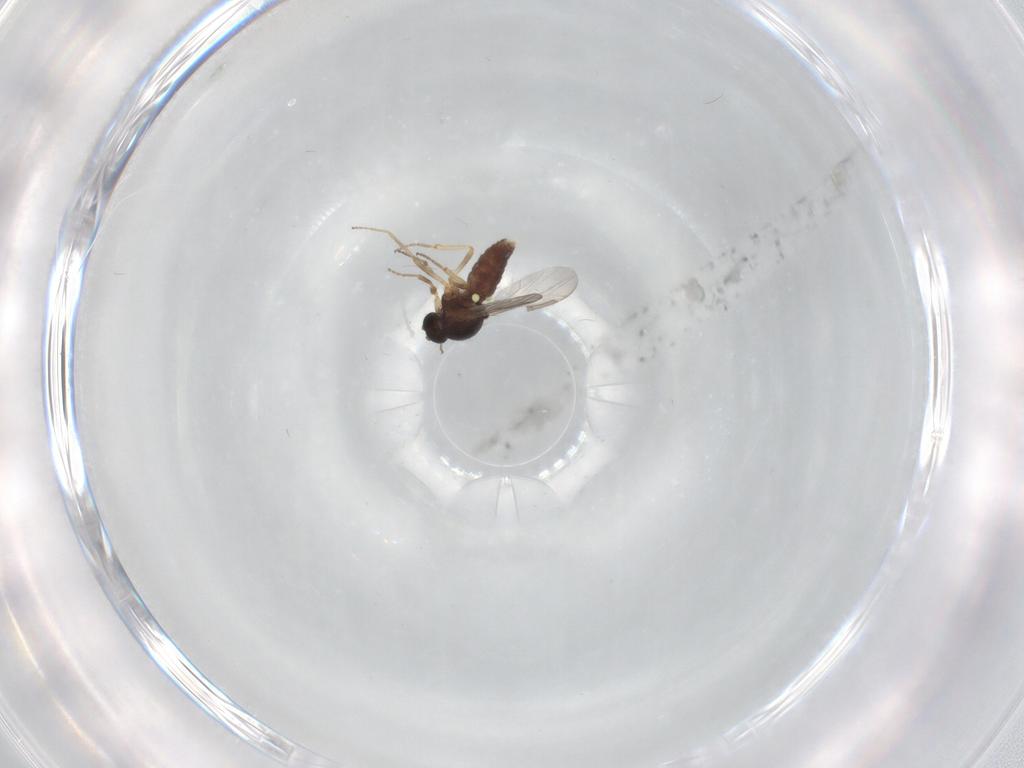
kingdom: Animalia
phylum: Arthropoda
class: Insecta
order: Diptera
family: Ceratopogonidae
